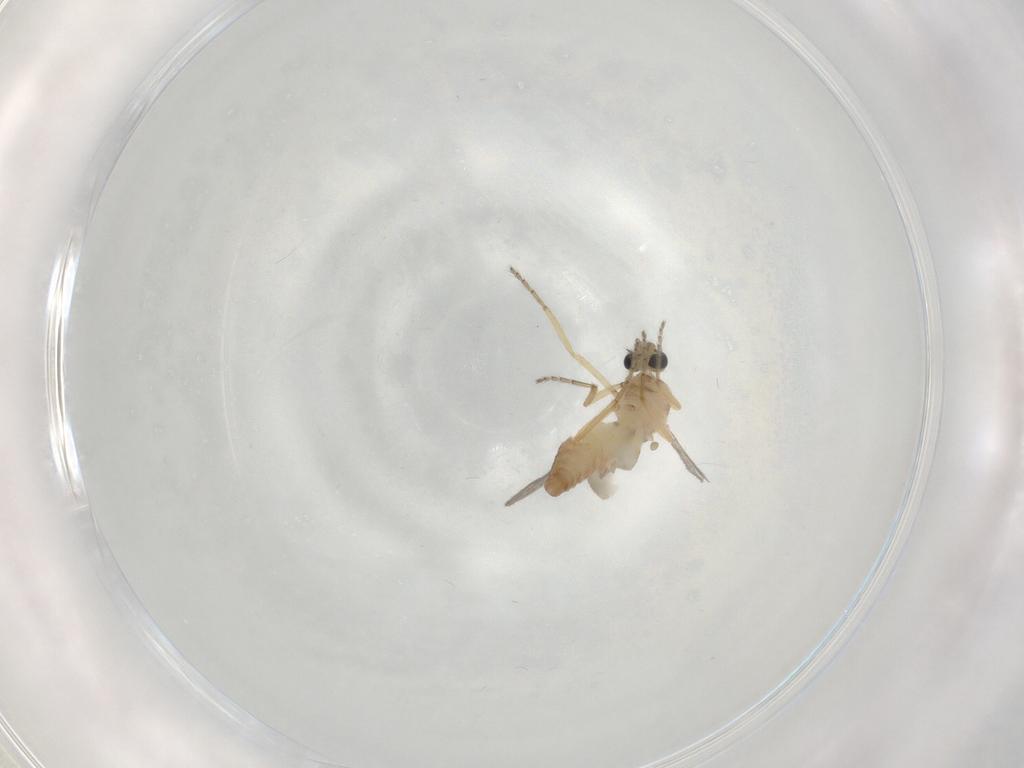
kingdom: Animalia
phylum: Arthropoda
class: Insecta
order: Diptera
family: Ceratopogonidae
